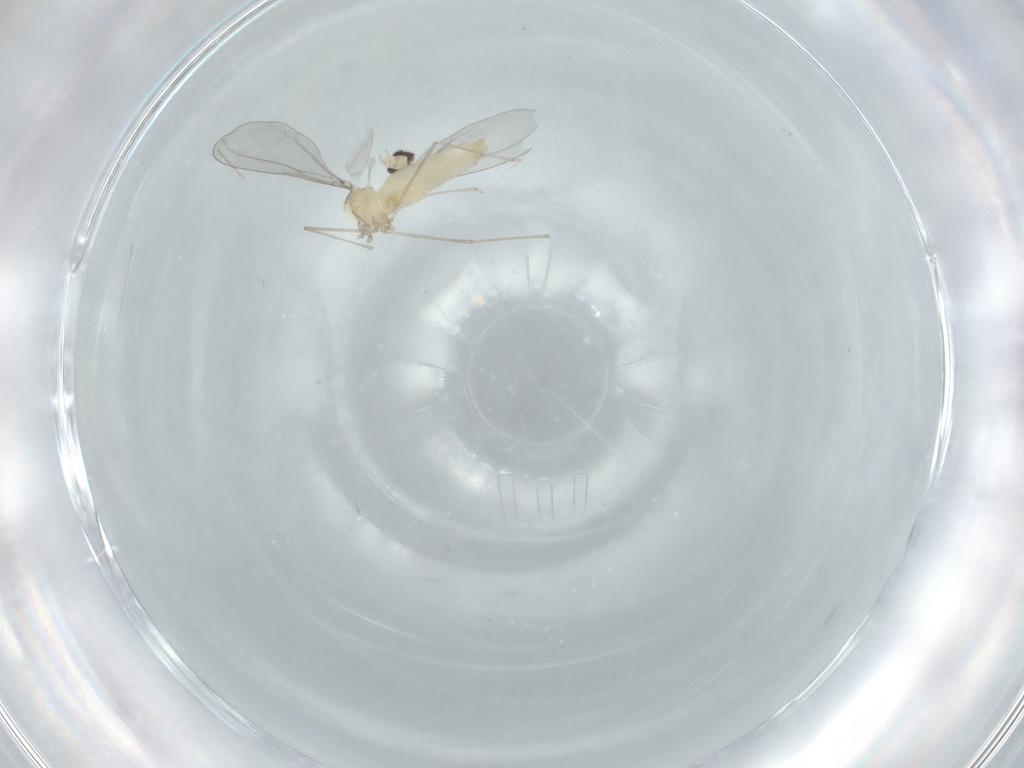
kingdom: Animalia
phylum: Arthropoda
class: Insecta
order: Diptera
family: Cecidomyiidae
